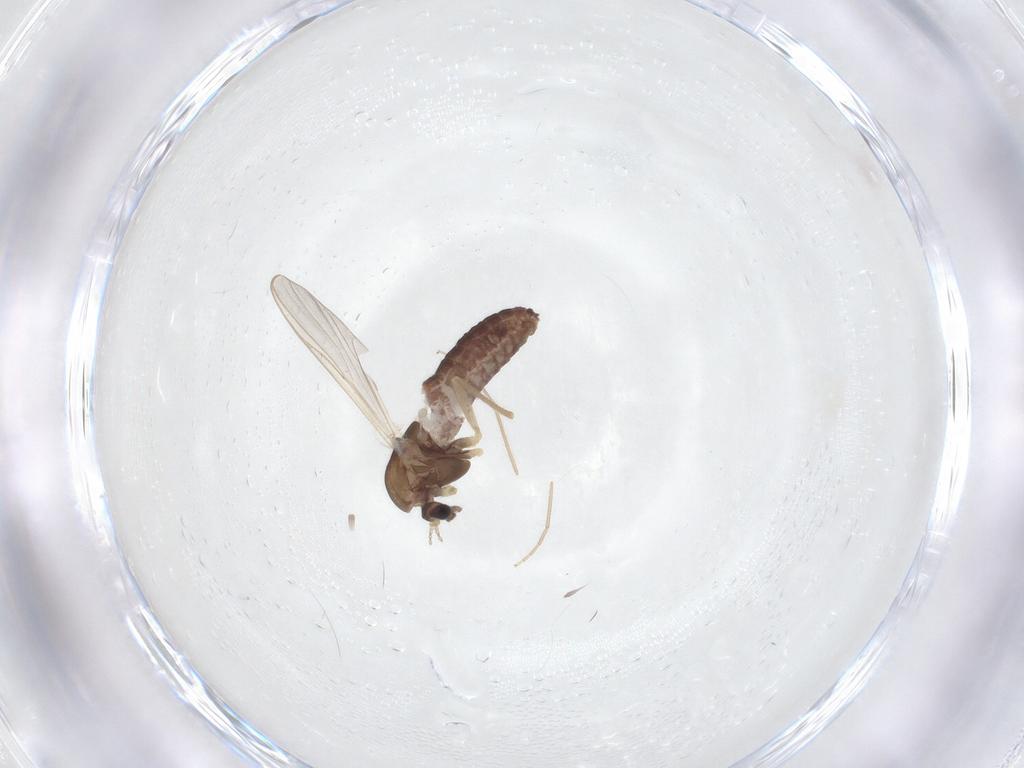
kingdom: Animalia
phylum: Arthropoda
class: Insecta
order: Diptera
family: Chironomidae
